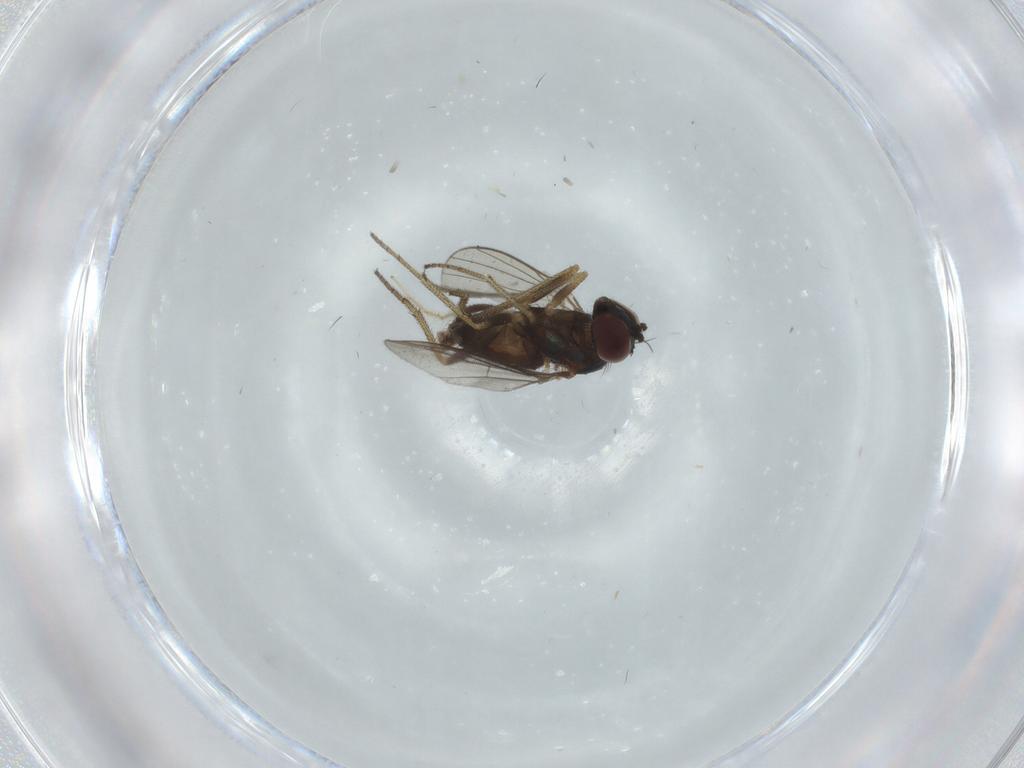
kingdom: Animalia
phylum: Arthropoda
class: Insecta
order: Diptera
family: Chironomidae
